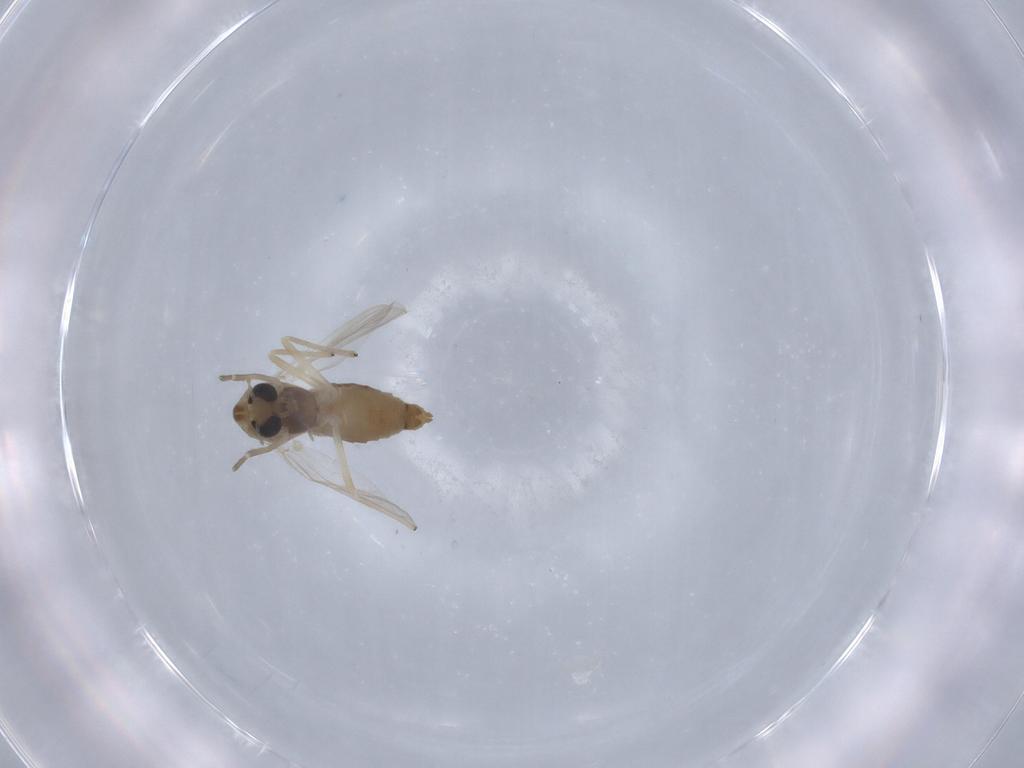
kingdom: Animalia
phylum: Arthropoda
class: Insecta
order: Diptera
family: Chironomidae
